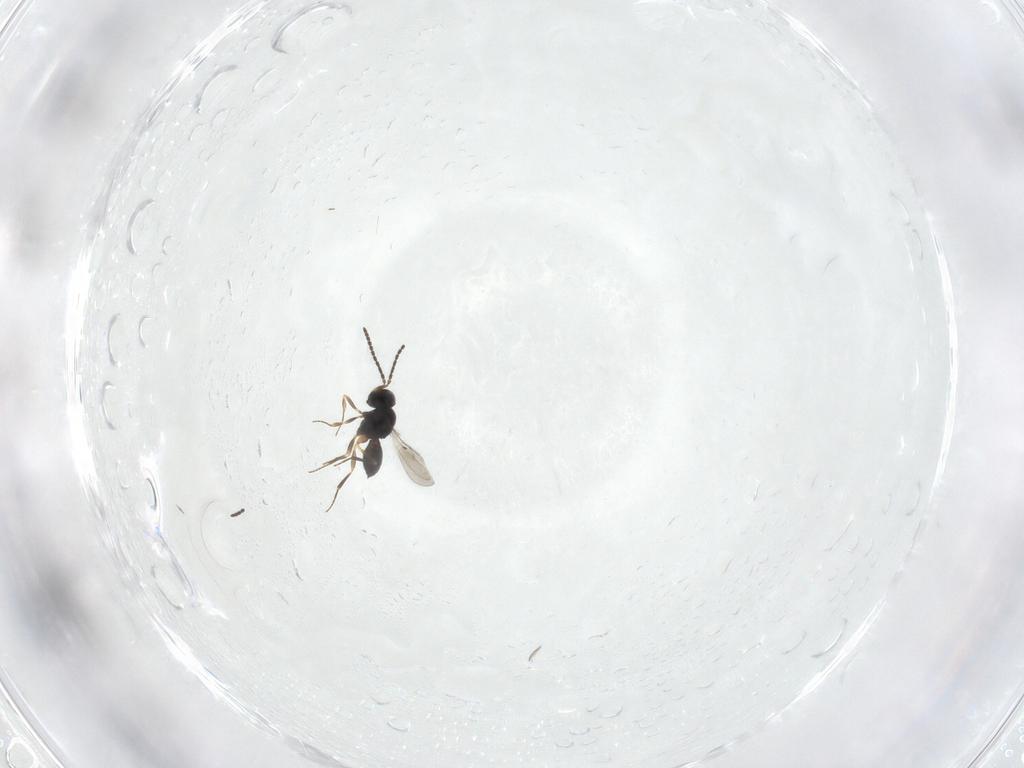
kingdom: Animalia
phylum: Arthropoda
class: Insecta
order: Hymenoptera
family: Scelionidae
